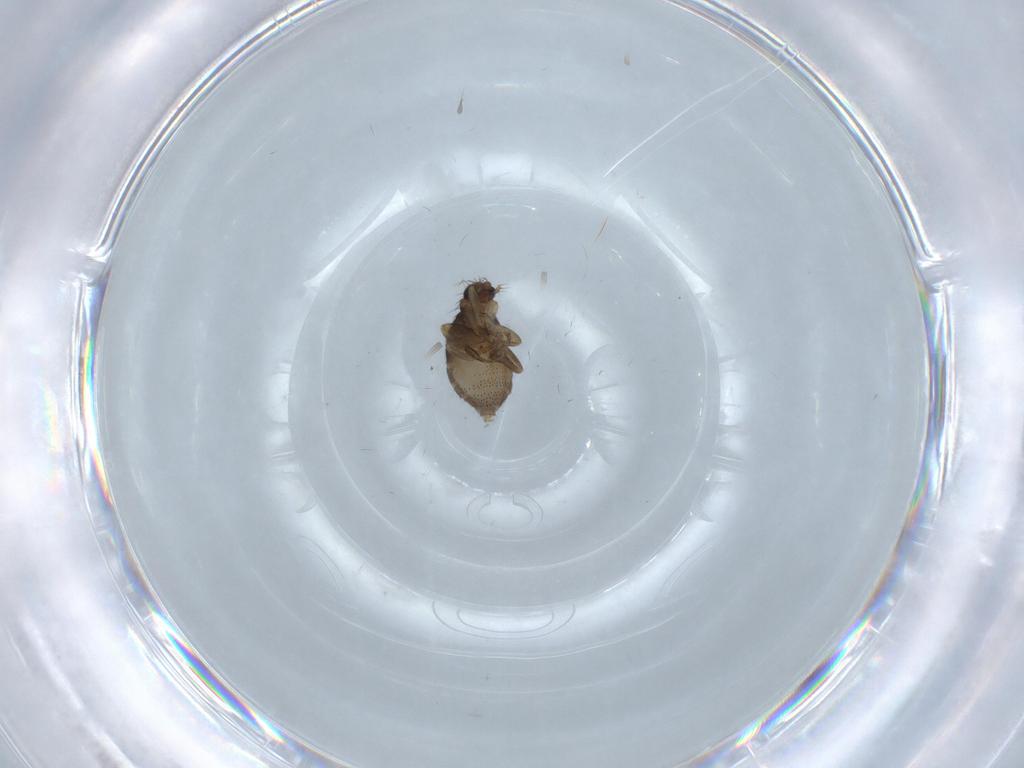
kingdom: Animalia
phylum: Arthropoda
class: Insecta
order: Diptera
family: Phoridae
